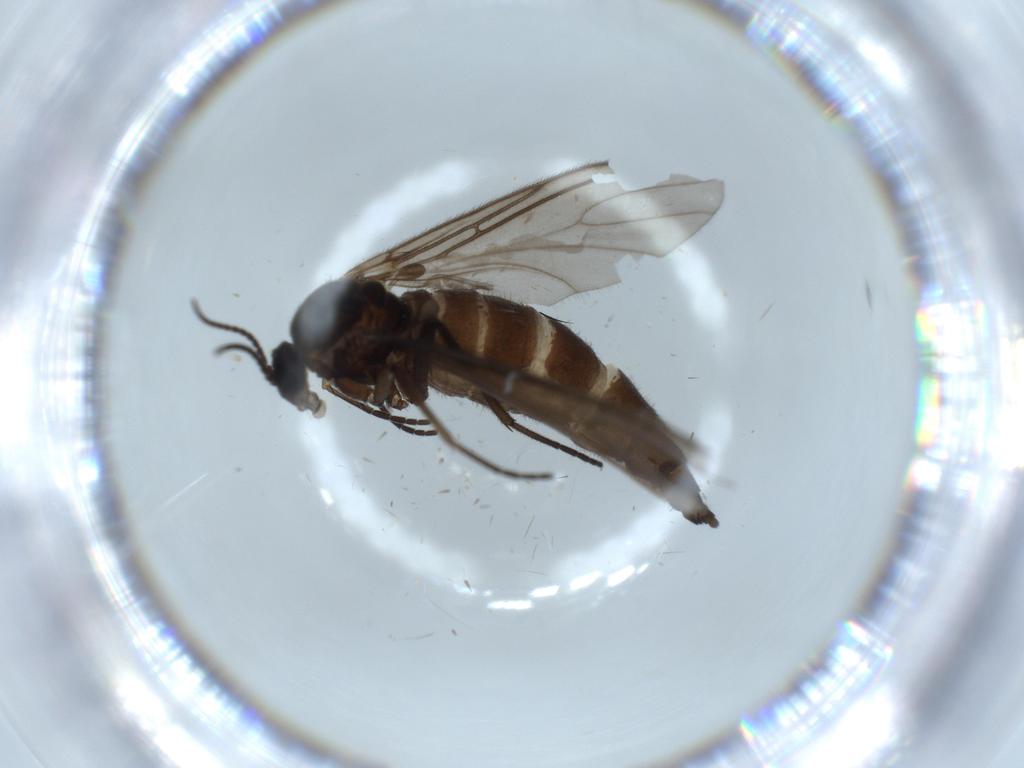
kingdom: Animalia
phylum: Arthropoda
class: Insecta
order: Diptera
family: Sciaridae
